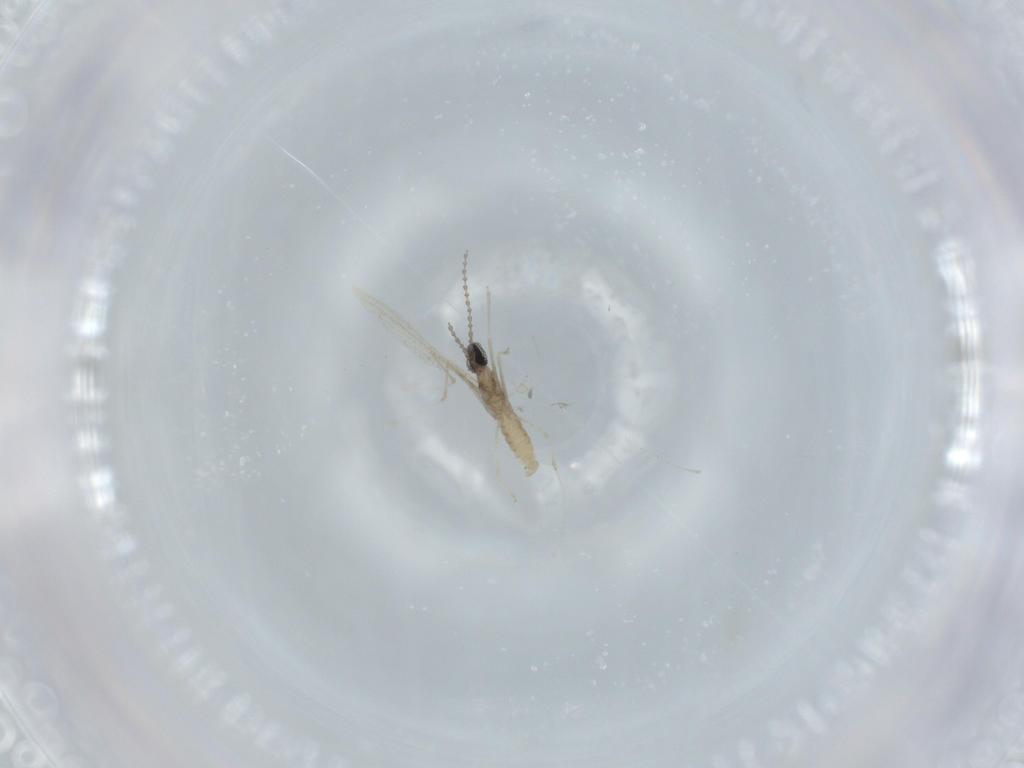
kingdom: Animalia
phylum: Arthropoda
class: Insecta
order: Diptera
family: Cecidomyiidae
